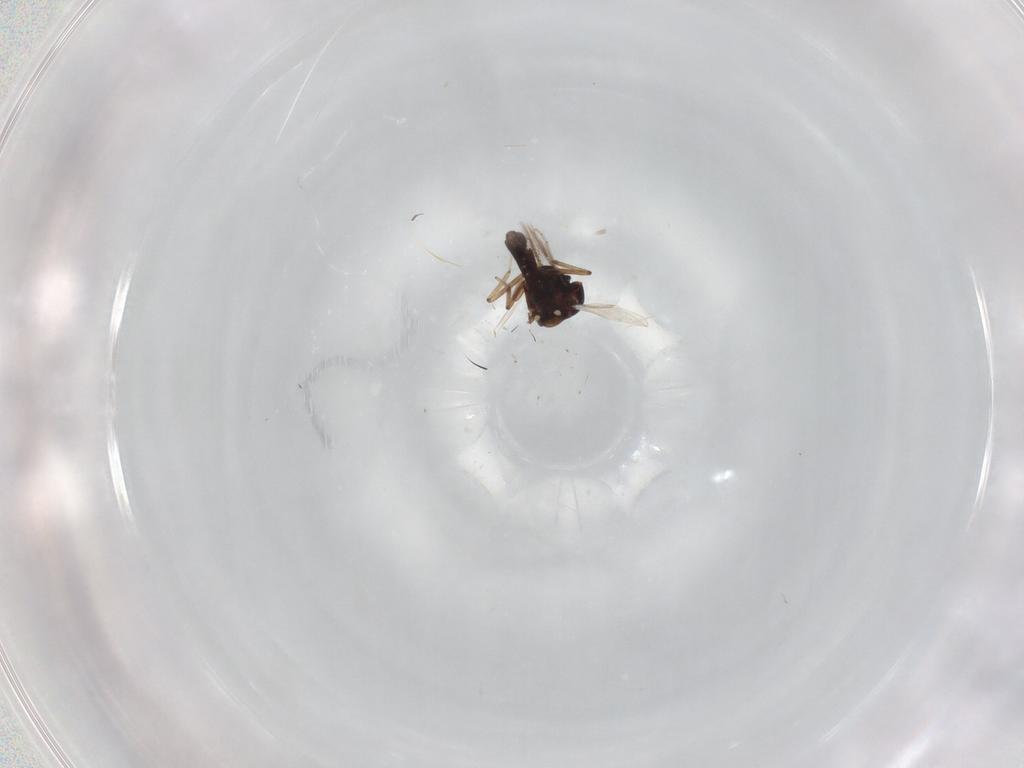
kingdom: Animalia
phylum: Arthropoda
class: Insecta
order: Diptera
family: Ceratopogonidae
